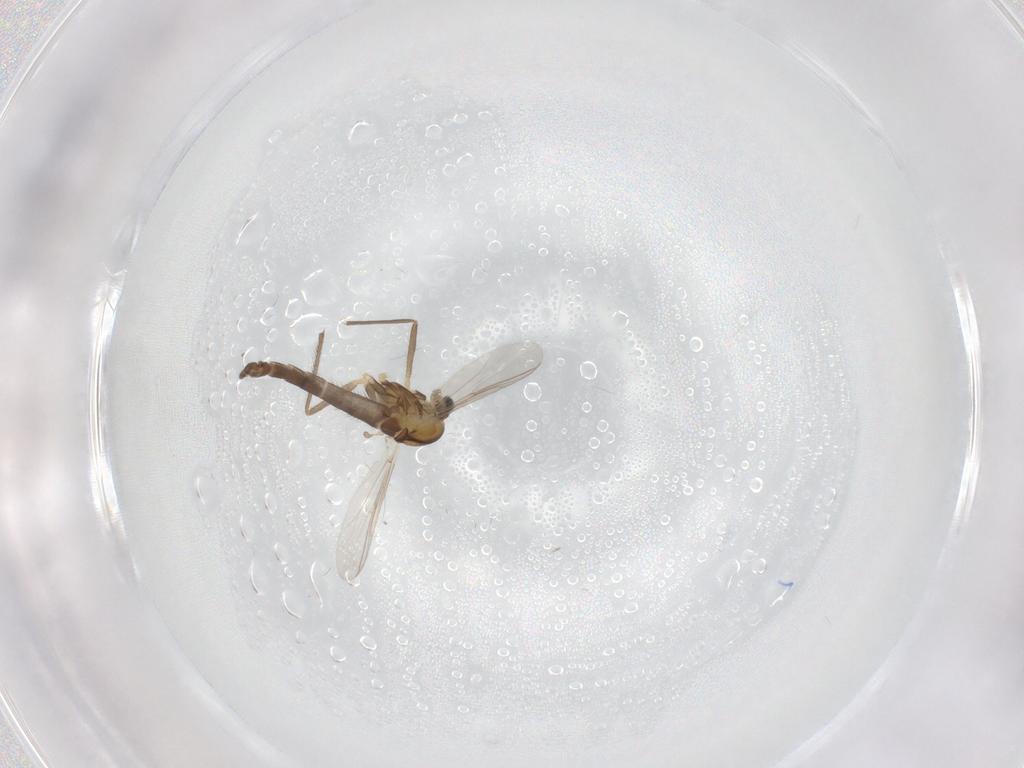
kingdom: Animalia
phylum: Arthropoda
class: Insecta
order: Diptera
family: Chironomidae
